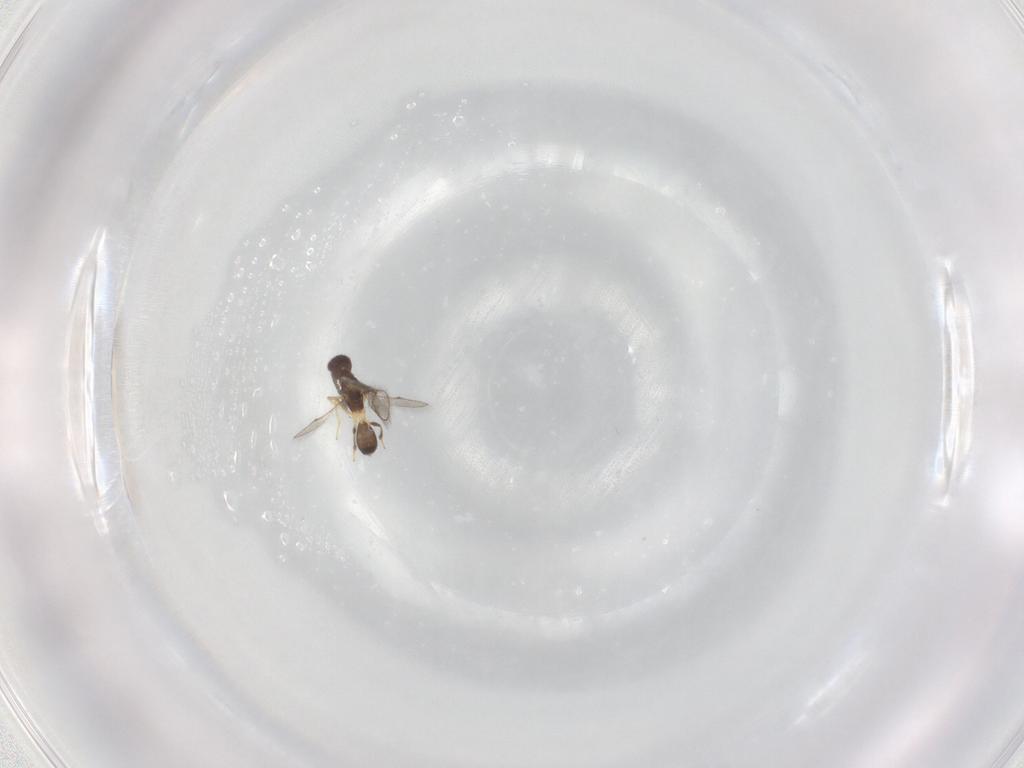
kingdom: Animalia
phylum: Arthropoda
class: Insecta
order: Hymenoptera
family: Pteromalidae
